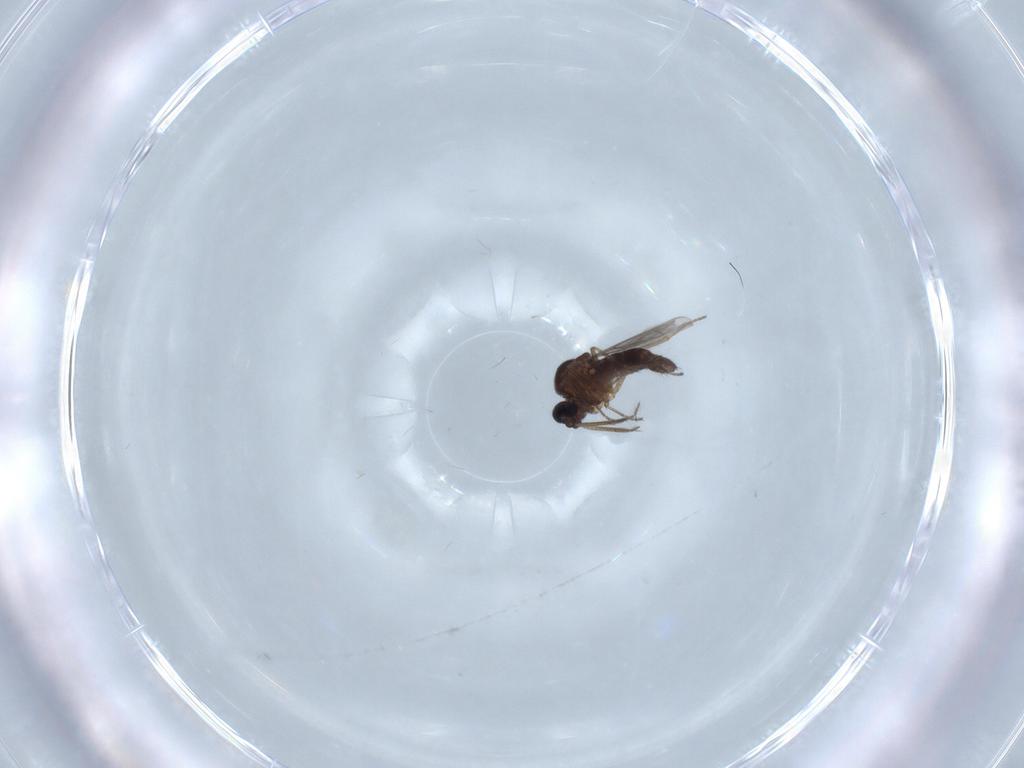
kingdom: Animalia
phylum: Arthropoda
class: Insecta
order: Diptera
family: Ceratopogonidae
